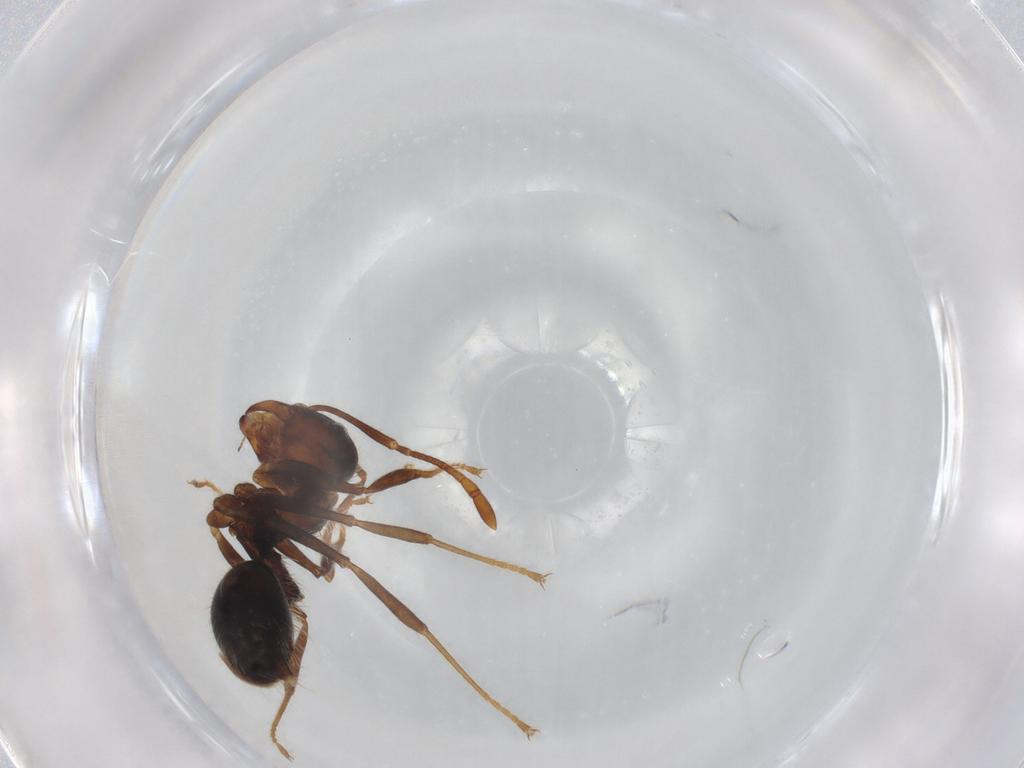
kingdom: Animalia
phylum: Arthropoda
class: Insecta
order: Hymenoptera
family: Formicidae
